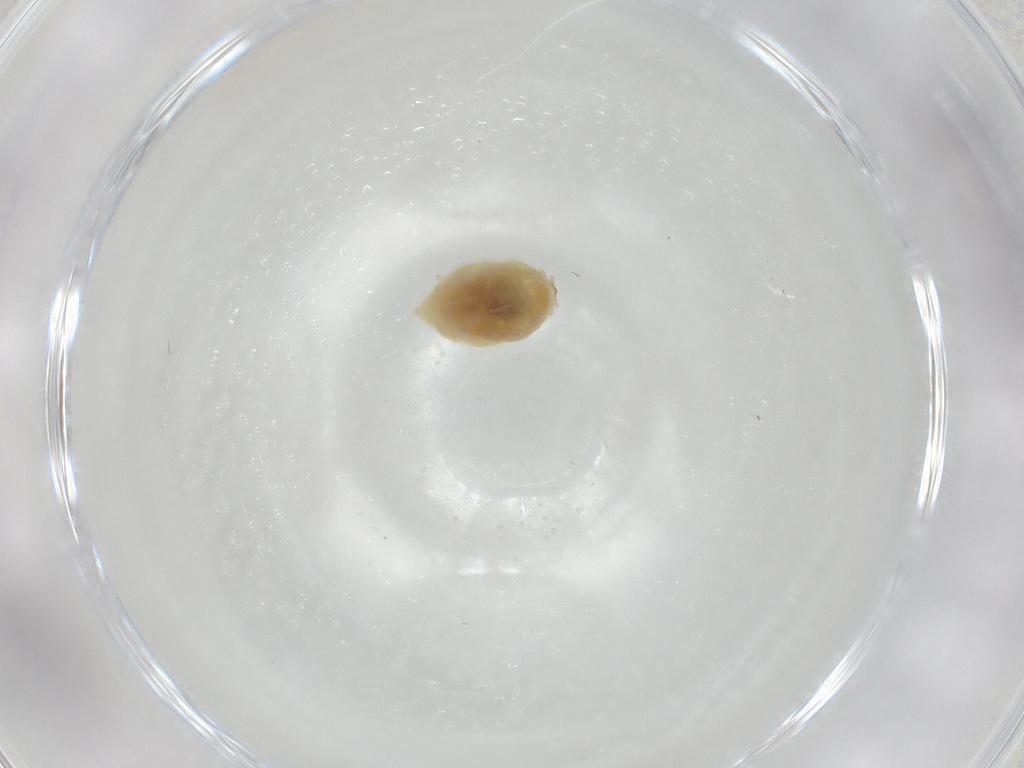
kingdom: Animalia
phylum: Arthropoda
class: Insecta
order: Neuroptera
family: Coniopterygidae
